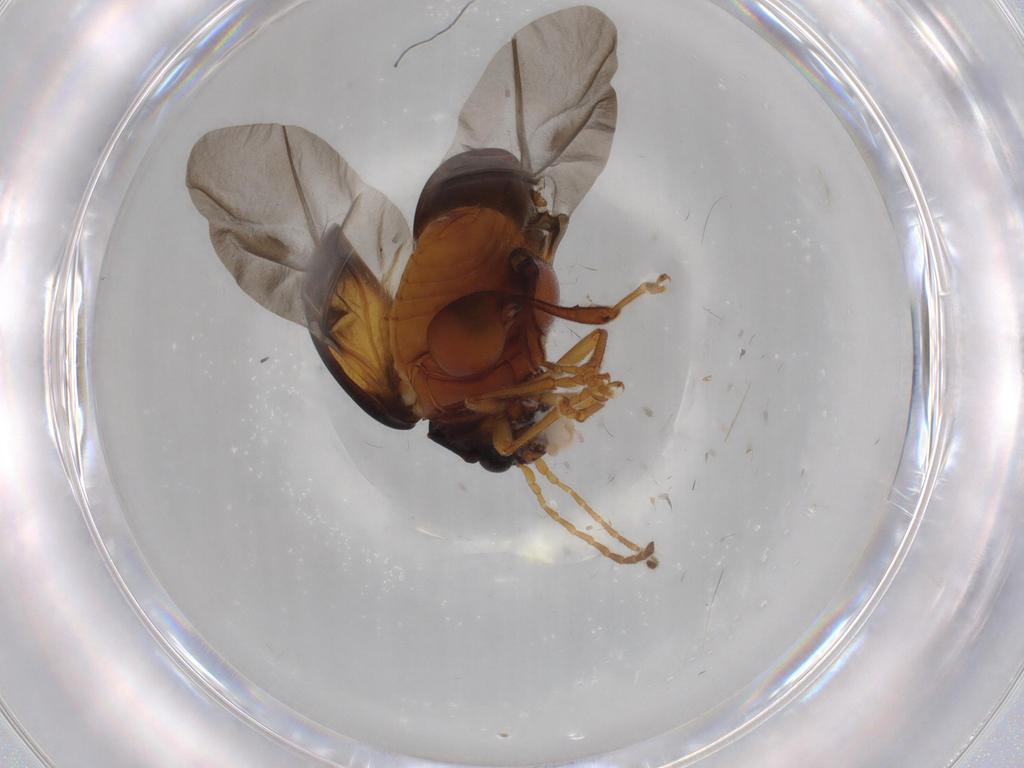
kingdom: Animalia
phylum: Arthropoda
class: Insecta
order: Coleoptera
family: Chrysomelidae
